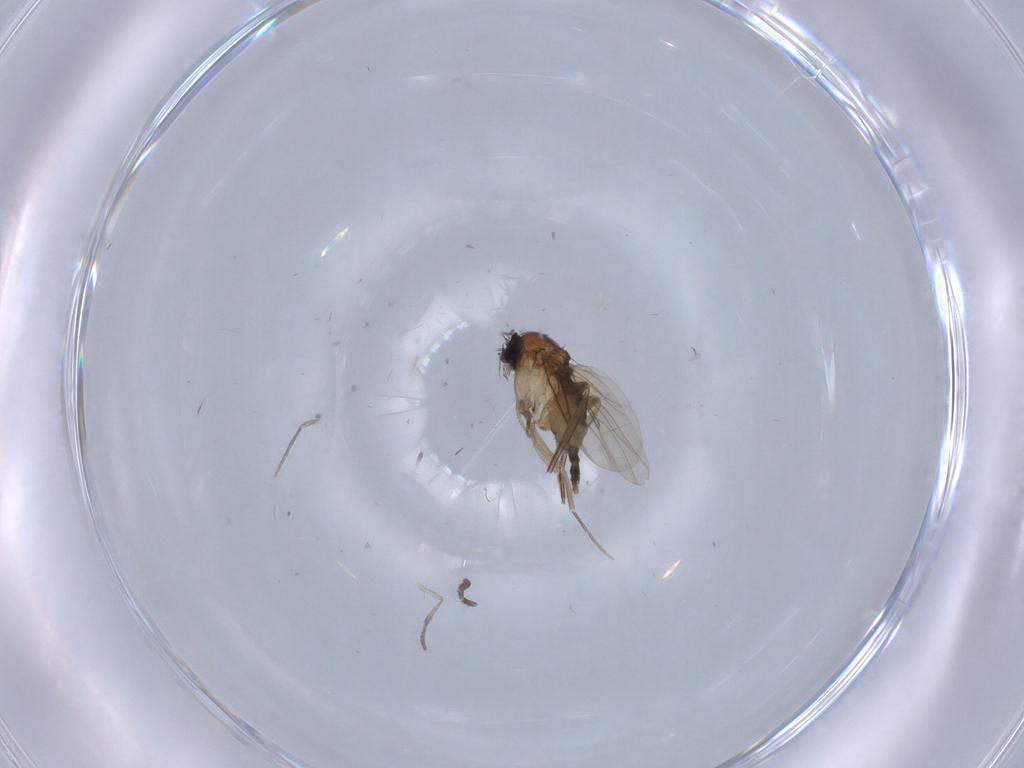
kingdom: Animalia
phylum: Arthropoda
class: Insecta
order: Diptera
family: Phoridae
